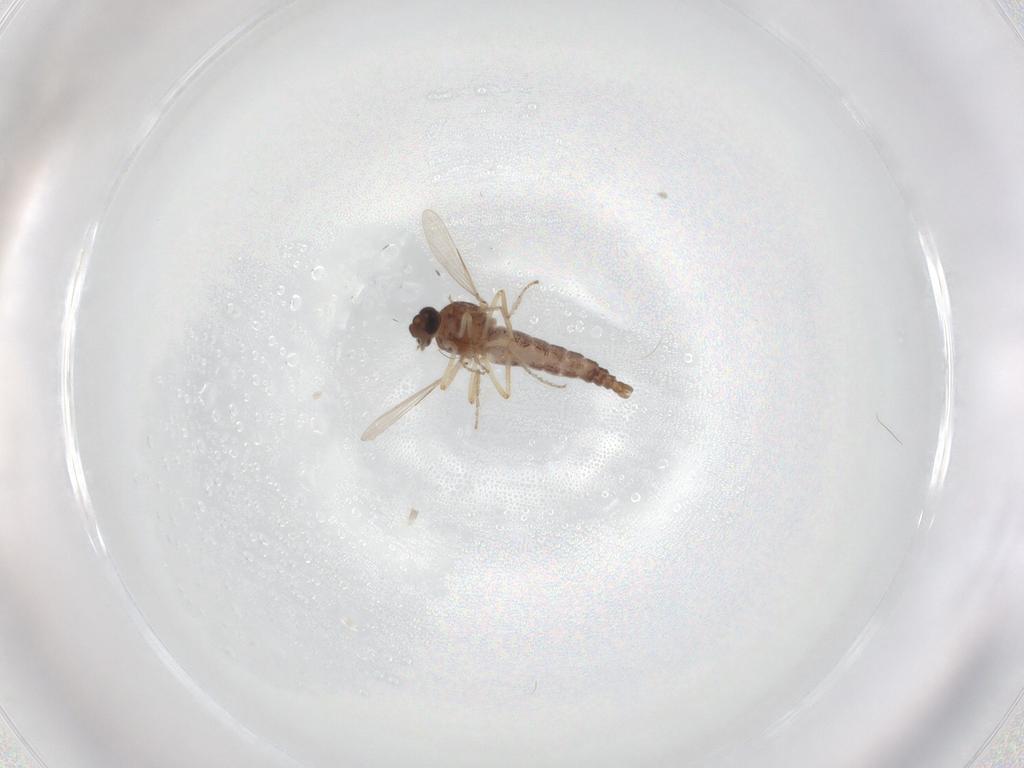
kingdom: Animalia
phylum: Arthropoda
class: Insecta
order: Diptera
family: Ceratopogonidae
